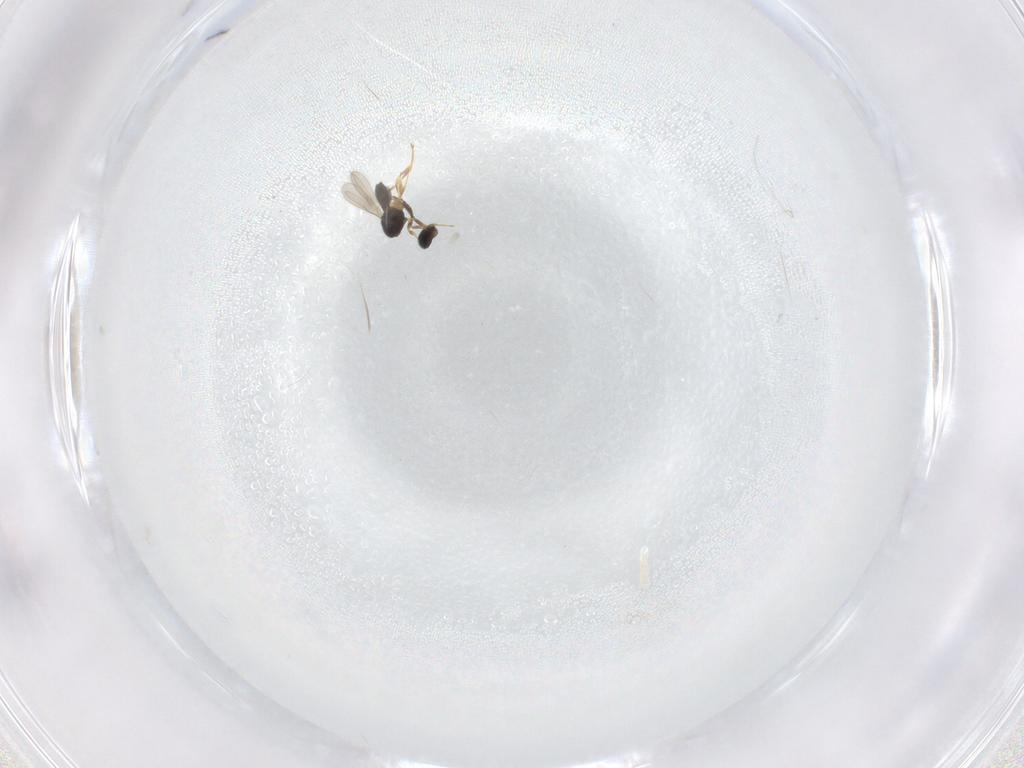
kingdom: Animalia
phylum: Arthropoda
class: Insecta
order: Hymenoptera
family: Scelionidae
